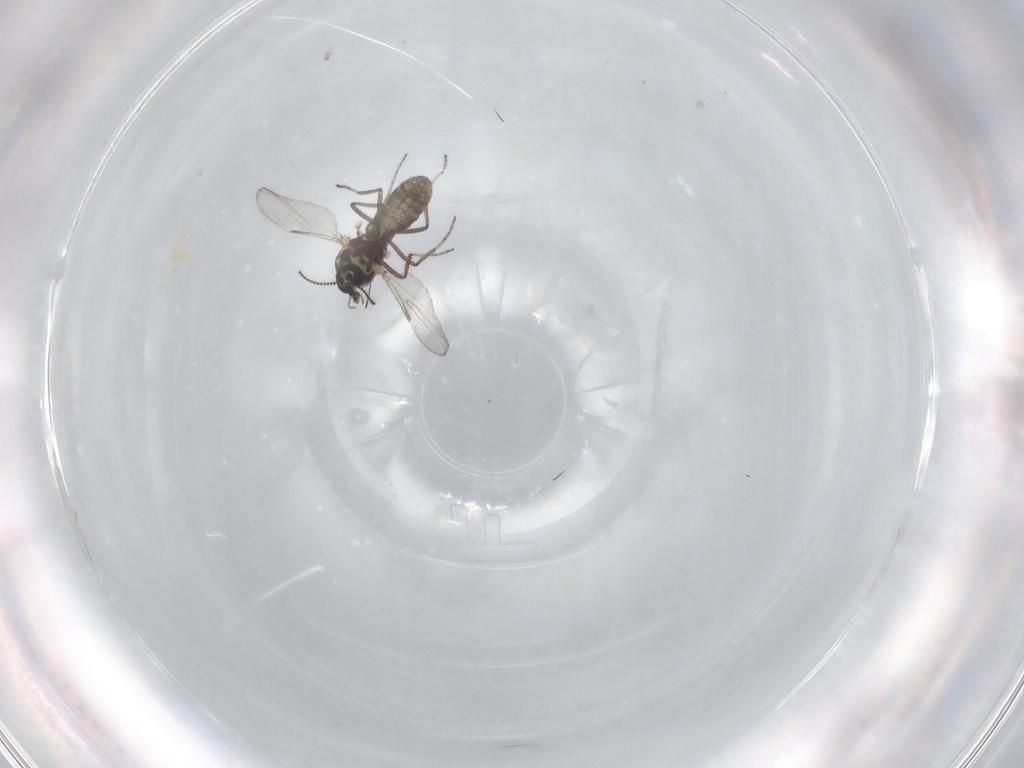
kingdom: Animalia
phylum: Arthropoda
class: Insecta
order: Diptera
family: Ceratopogonidae
